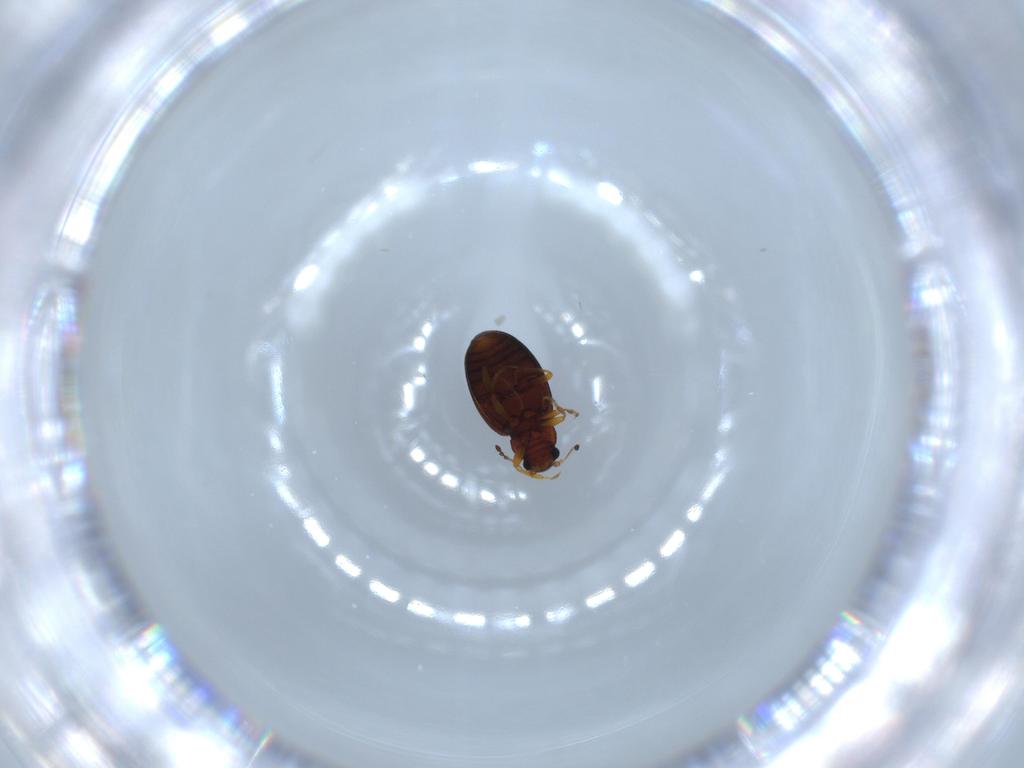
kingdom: Animalia
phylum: Arthropoda
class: Insecta
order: Coleoptera
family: Latridiidae
